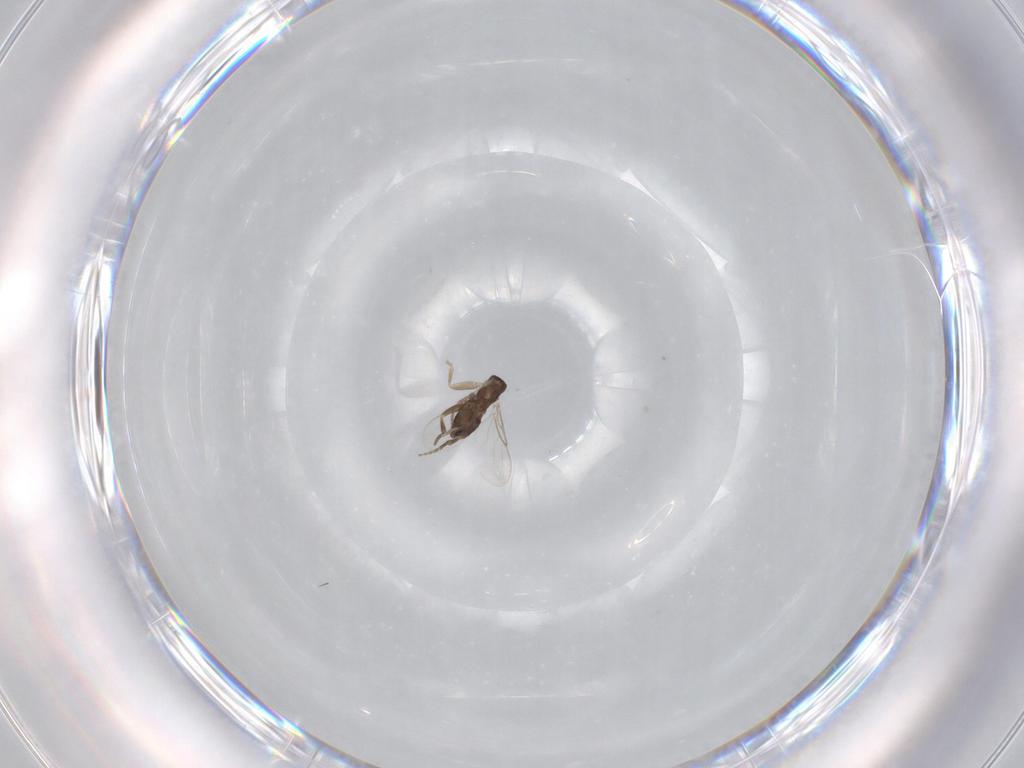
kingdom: Animalia
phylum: Arthropoda
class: Insecta
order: Diptera
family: Phoridae
